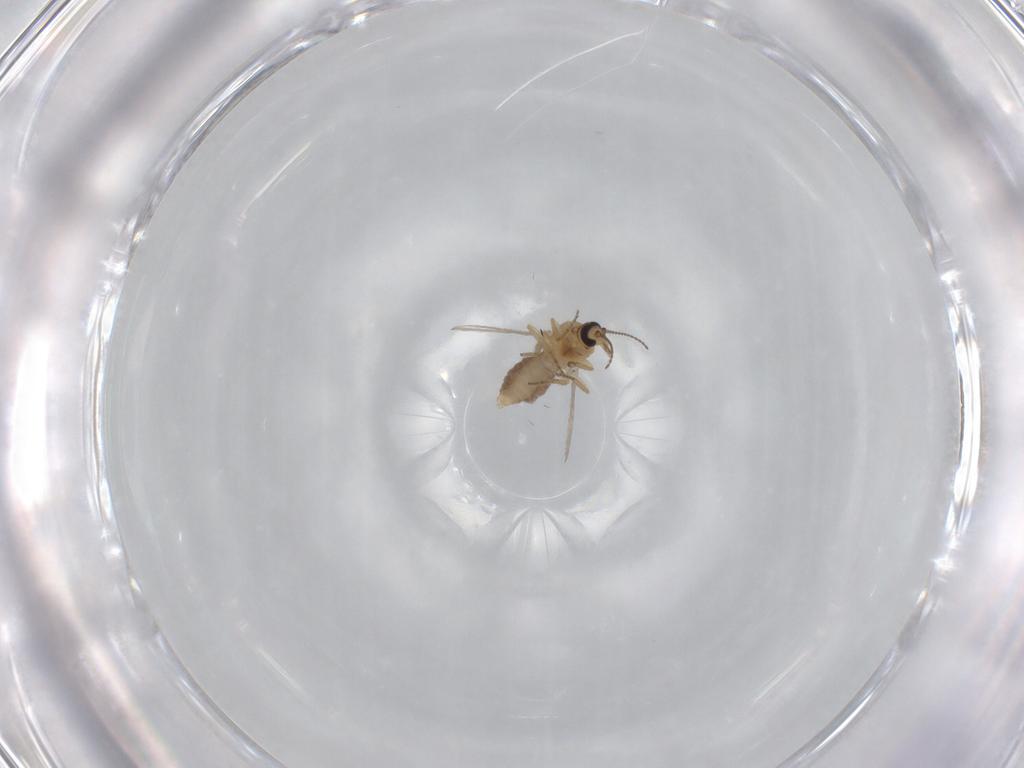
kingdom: Animalia
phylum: Arthropoda
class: Insecta
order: Diptera
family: Ceratopogonidae
